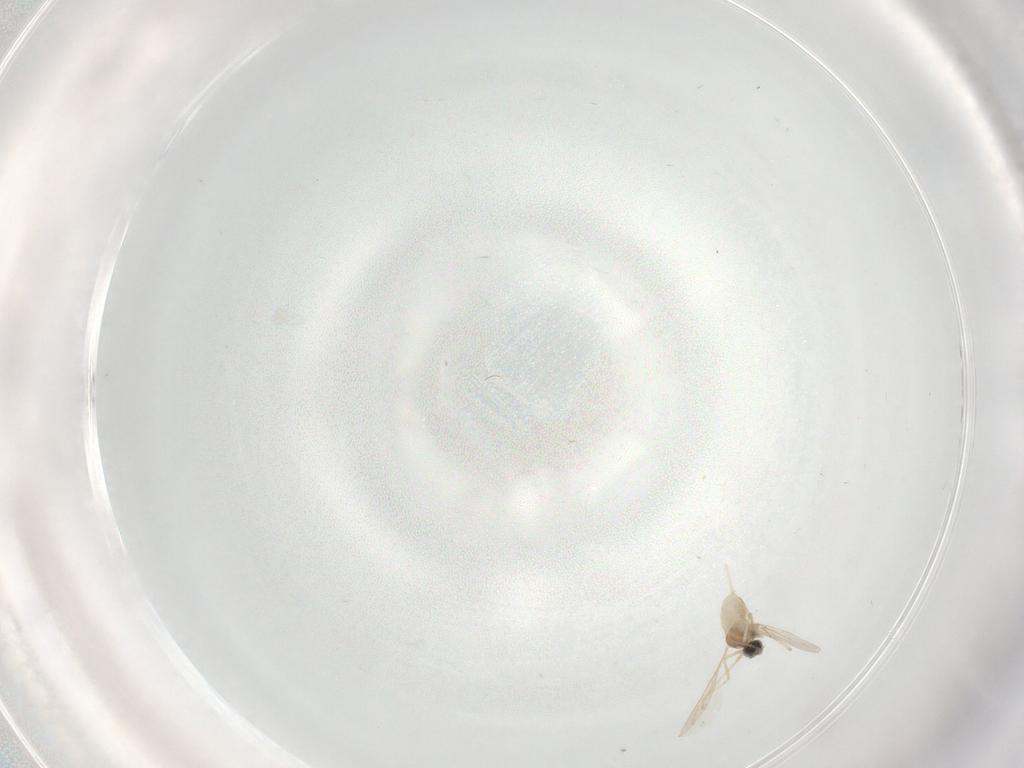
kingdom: Animalia
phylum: Arthropoda
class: Insecta
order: Diptera
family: Cecidomyiidae
